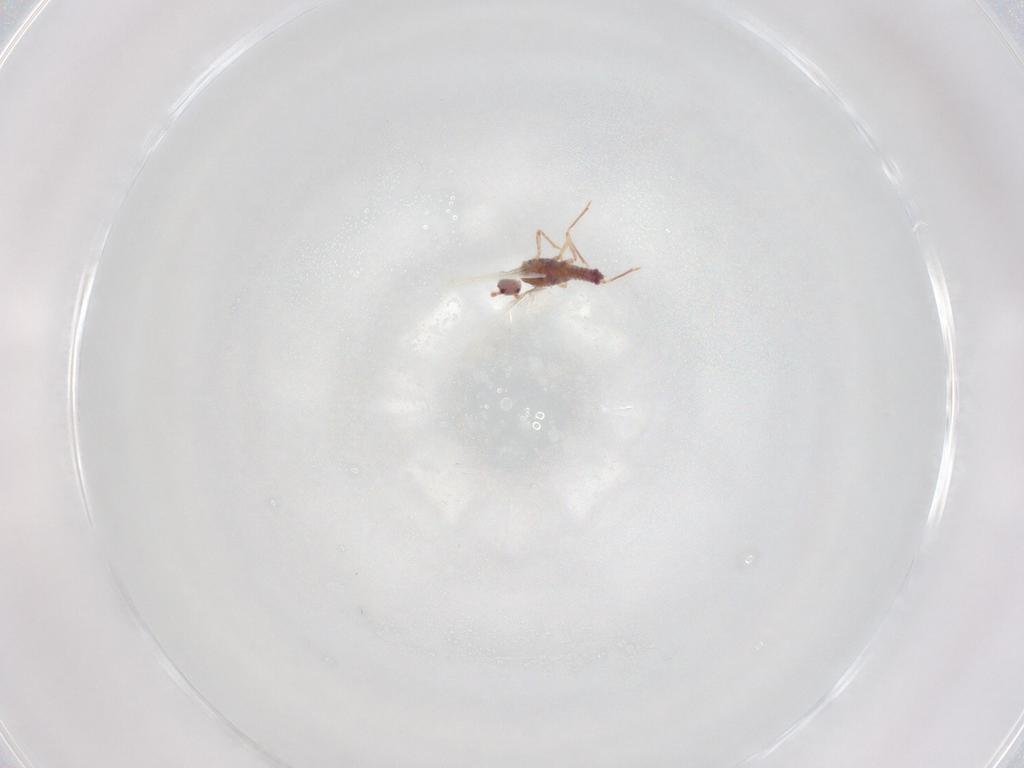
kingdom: Animalia
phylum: Arthropoda
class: Insecta
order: Hemiptera
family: Aphididae
